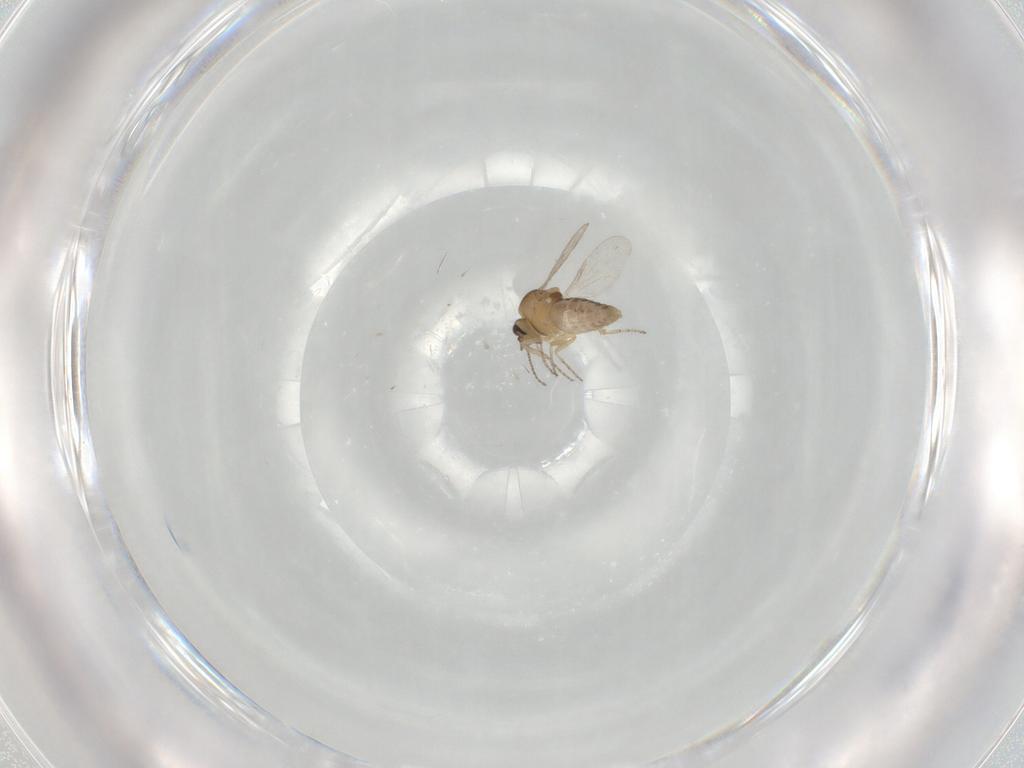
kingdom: Animalia
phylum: Arthropoda
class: Insecta
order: Diptera
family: Ceratopogonidae
